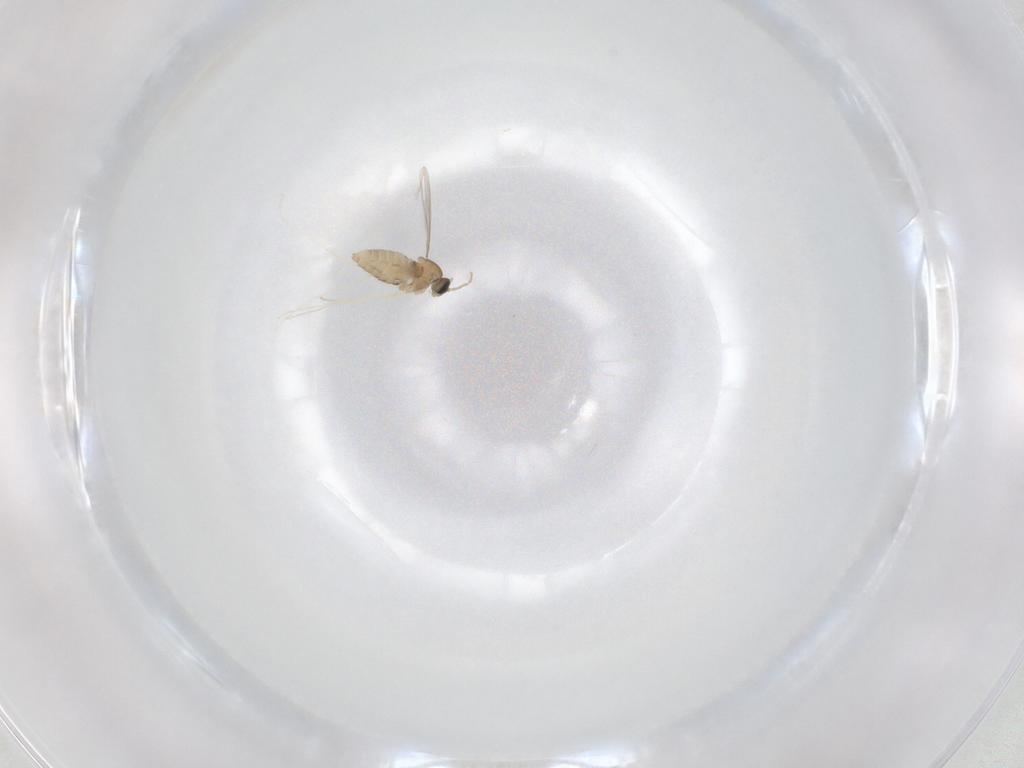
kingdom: Animalia
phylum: Arthropoda
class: Insecta
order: Diptera
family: Cecidomyiidae
